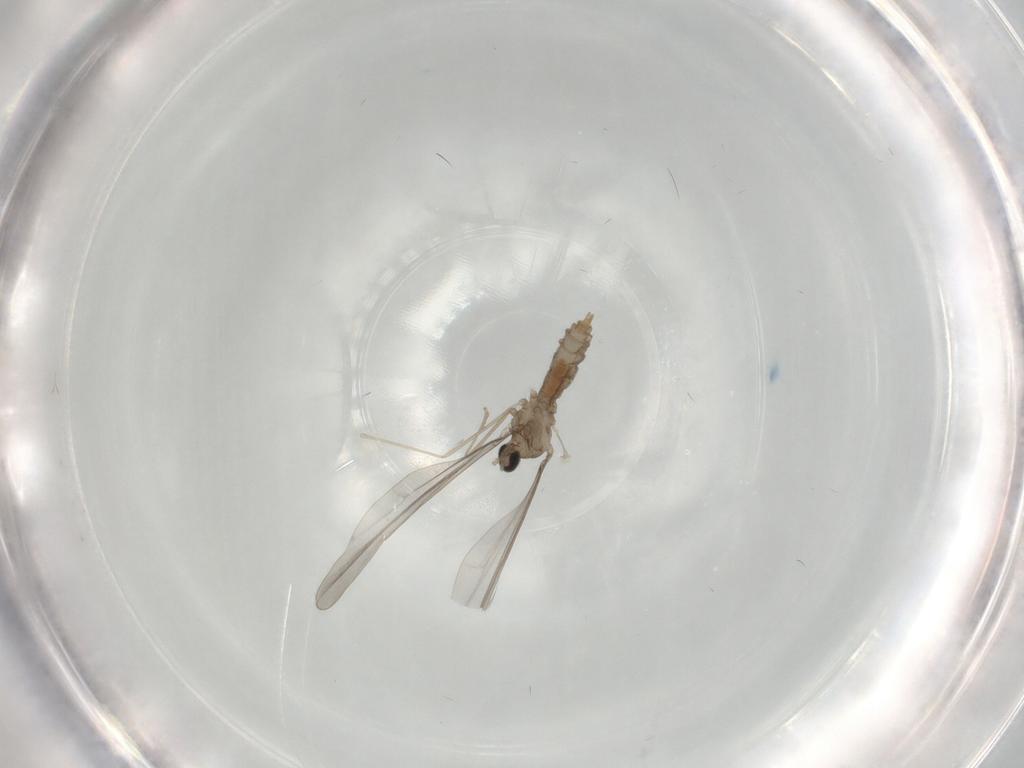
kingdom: Animalia
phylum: Arthropoda
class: Insecta
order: Diptera
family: Cecidomyiidae
